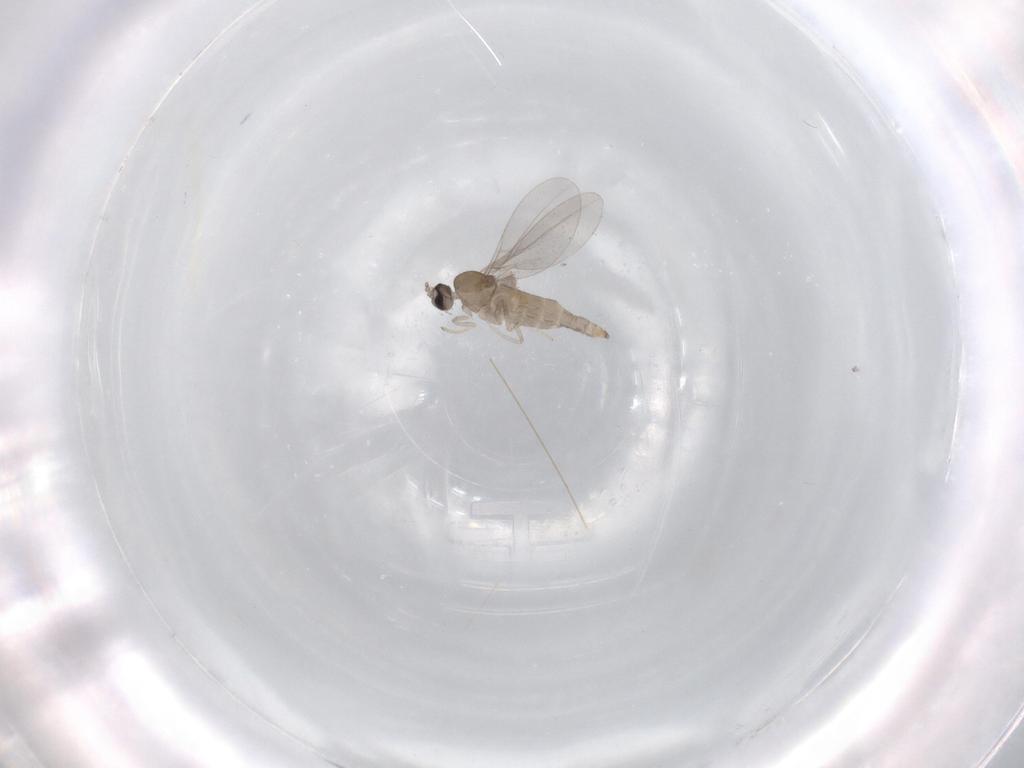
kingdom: Animalia
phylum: Arthropoda
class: Insecta
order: Diptera
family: Cecidomyiidae
